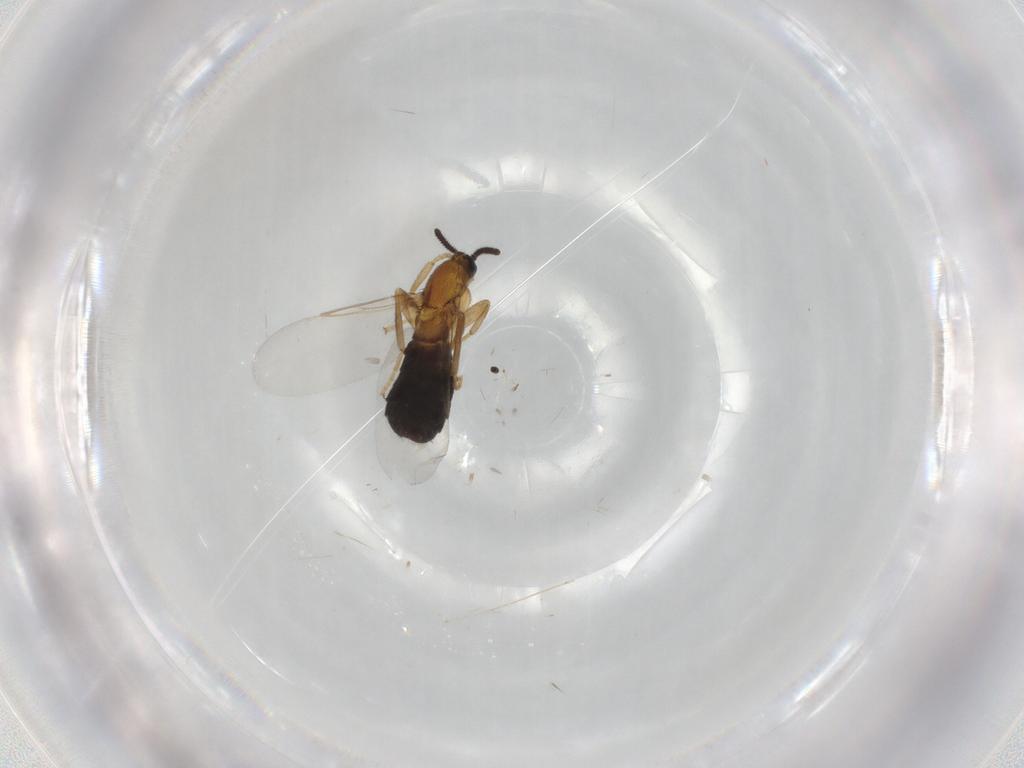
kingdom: Animalia
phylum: Arthropoda
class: Insecta
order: Diptera
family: Scatopsidae
